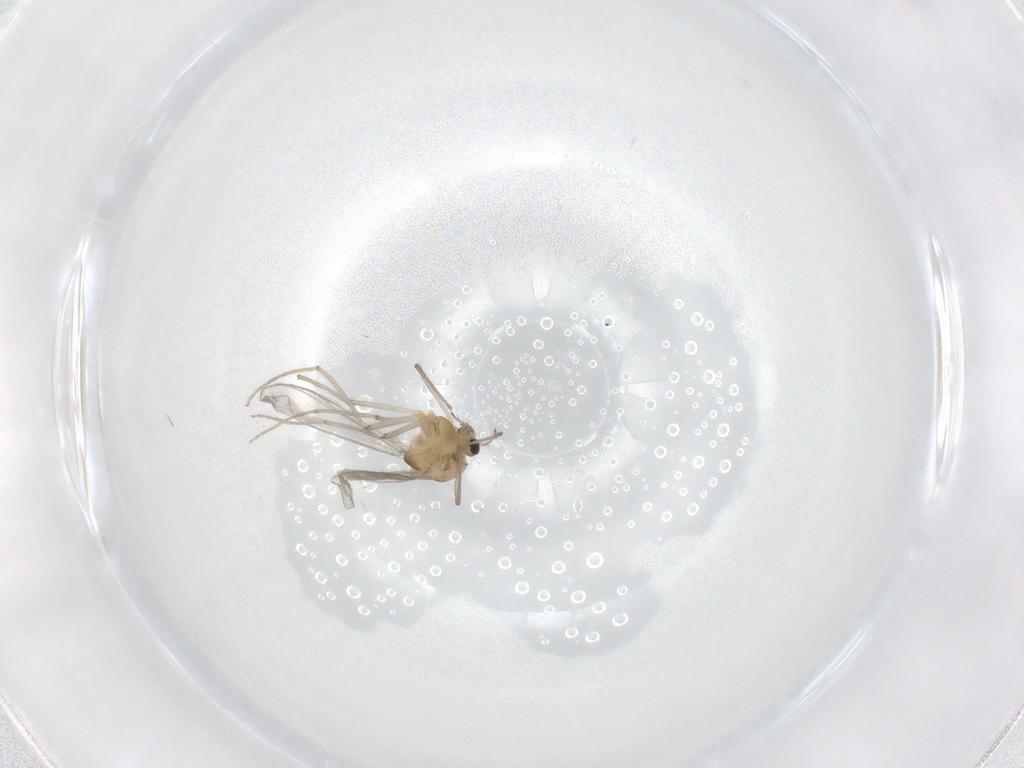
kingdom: Animalia
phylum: Arthropoda
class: Insecta
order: Diptera
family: Chironomidae
